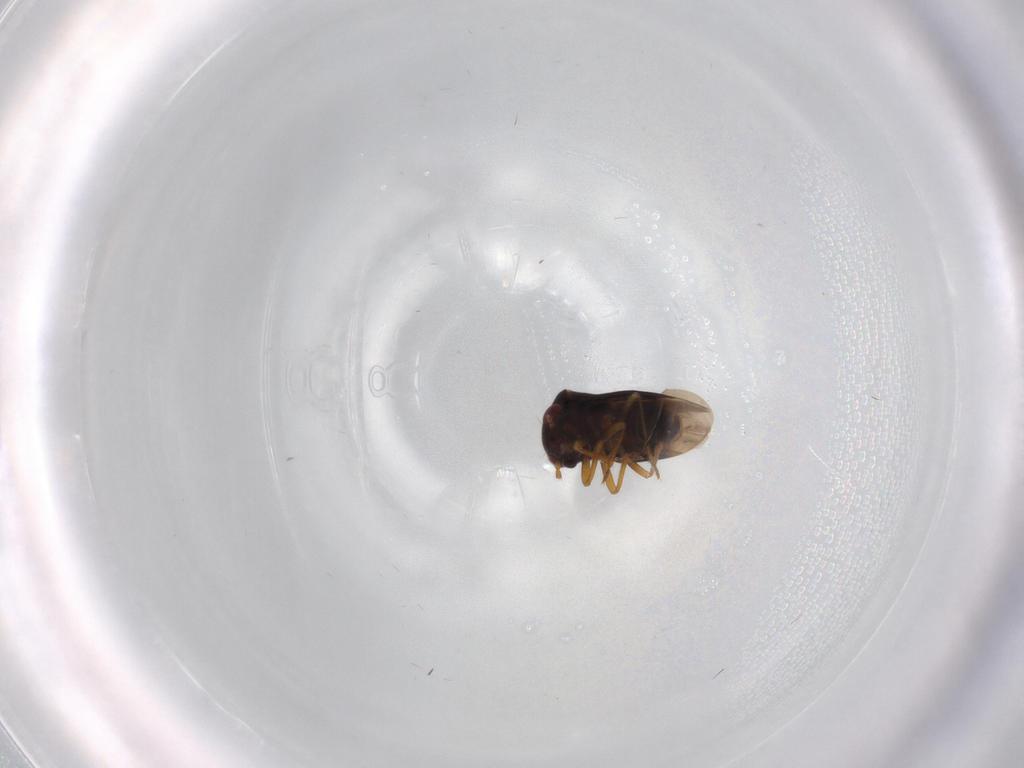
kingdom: Animalia
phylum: Arthropoda
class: Insecta
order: Hemiptera
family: Schizopteridae
